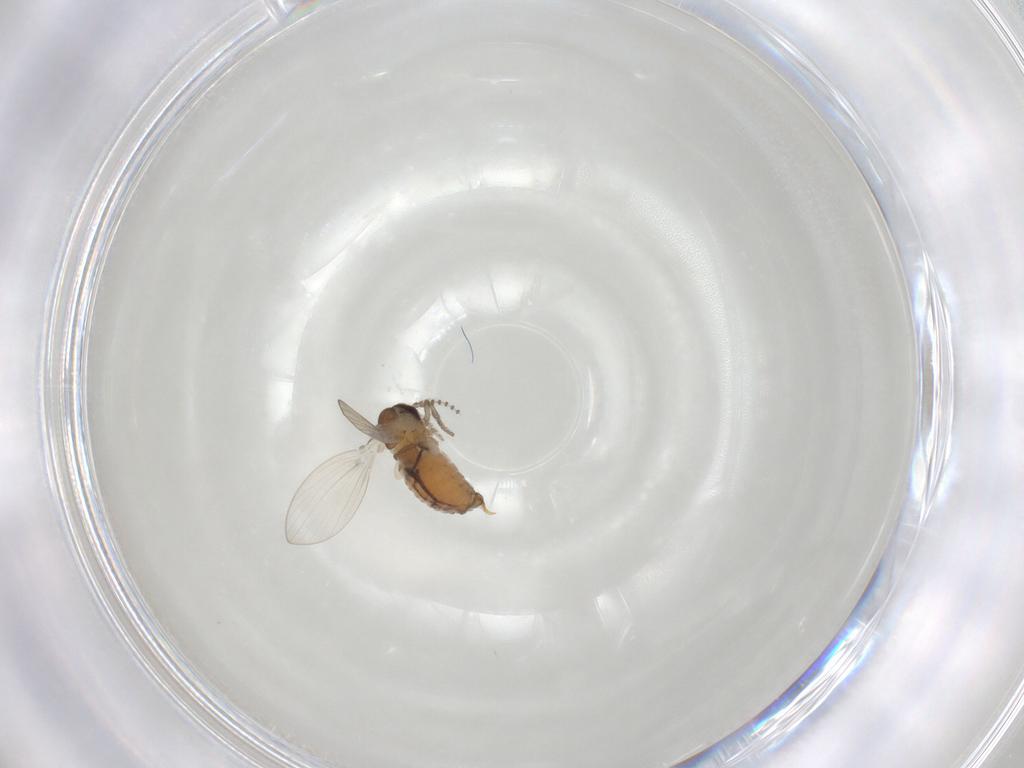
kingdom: Animalia
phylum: Arthropoda
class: Insecta
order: Diptera
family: Psychodidae
